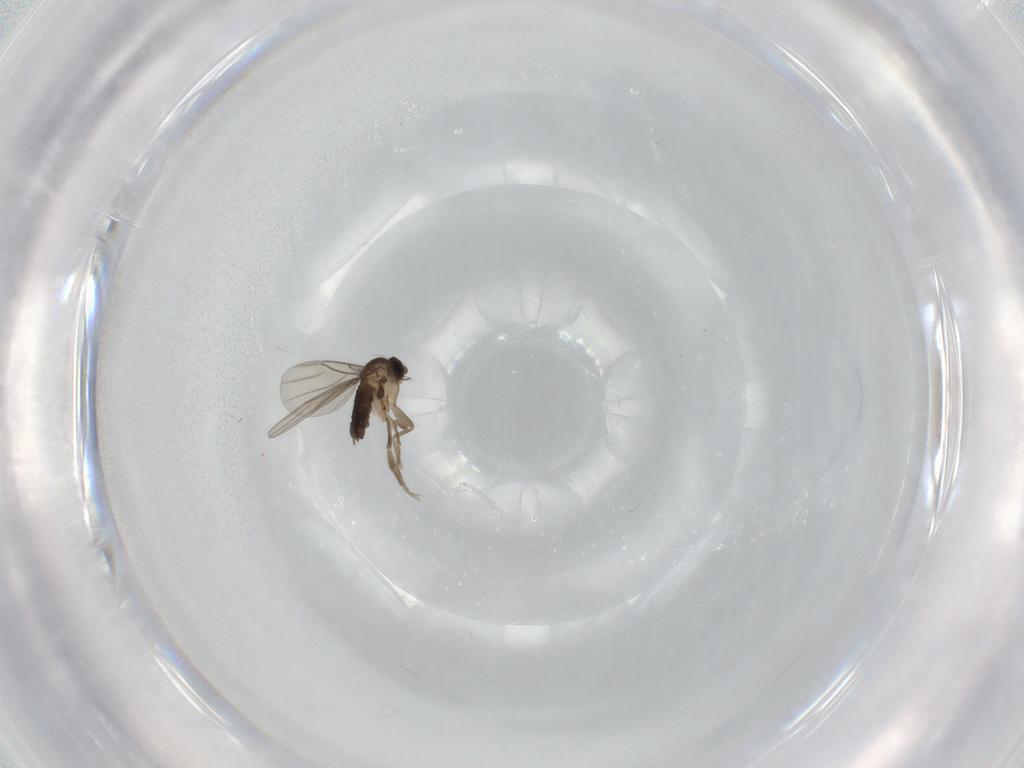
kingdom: Animalia
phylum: Arthropoda
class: Insecta
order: Diptera
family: Phoridae
